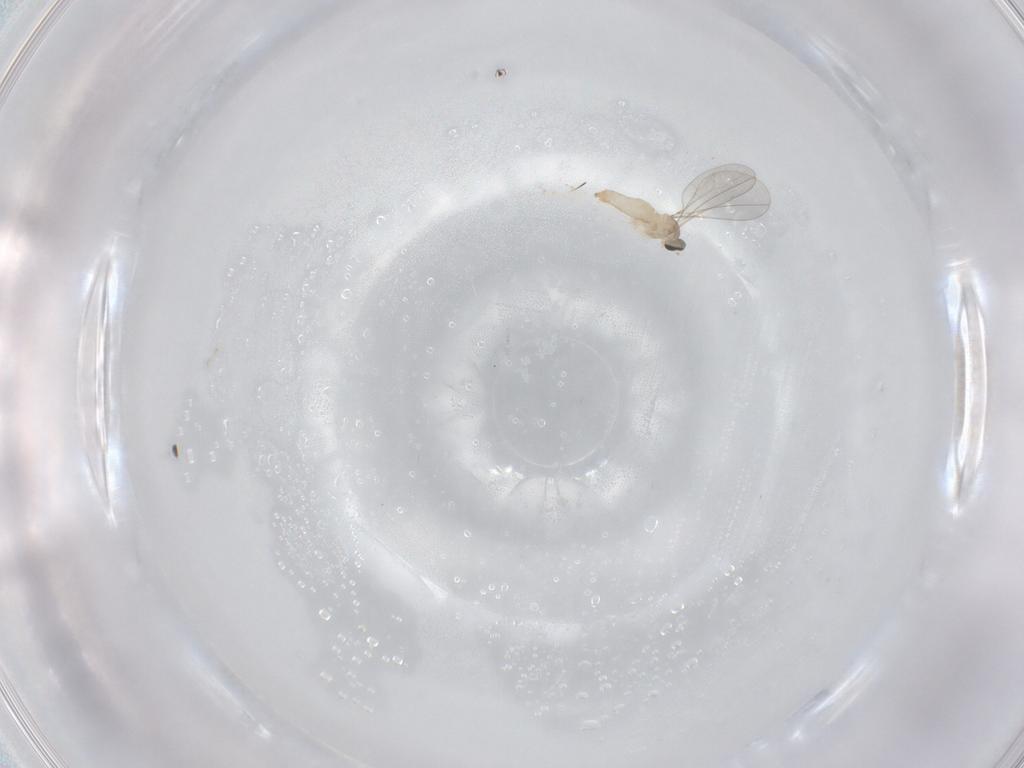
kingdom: Animalia
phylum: Arthropoda
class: Insecta
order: Diptera
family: Cecidomyiidae
